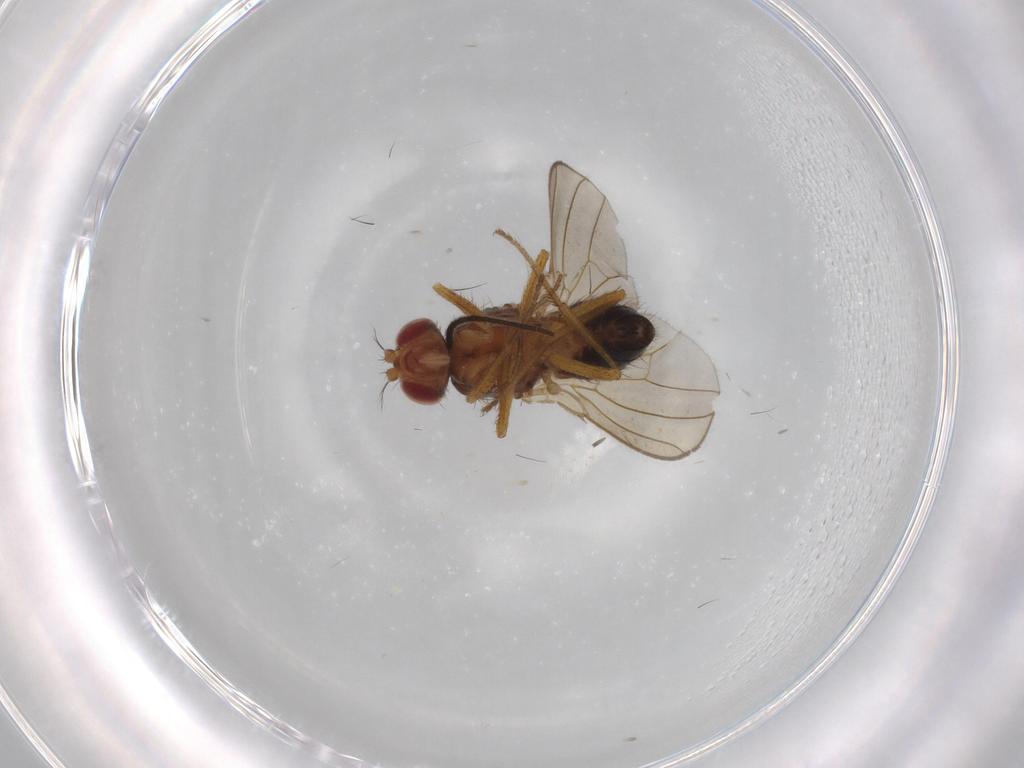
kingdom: Animalia
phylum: Arthropoda
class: Insecta
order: Diptera
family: Drosophilidae
